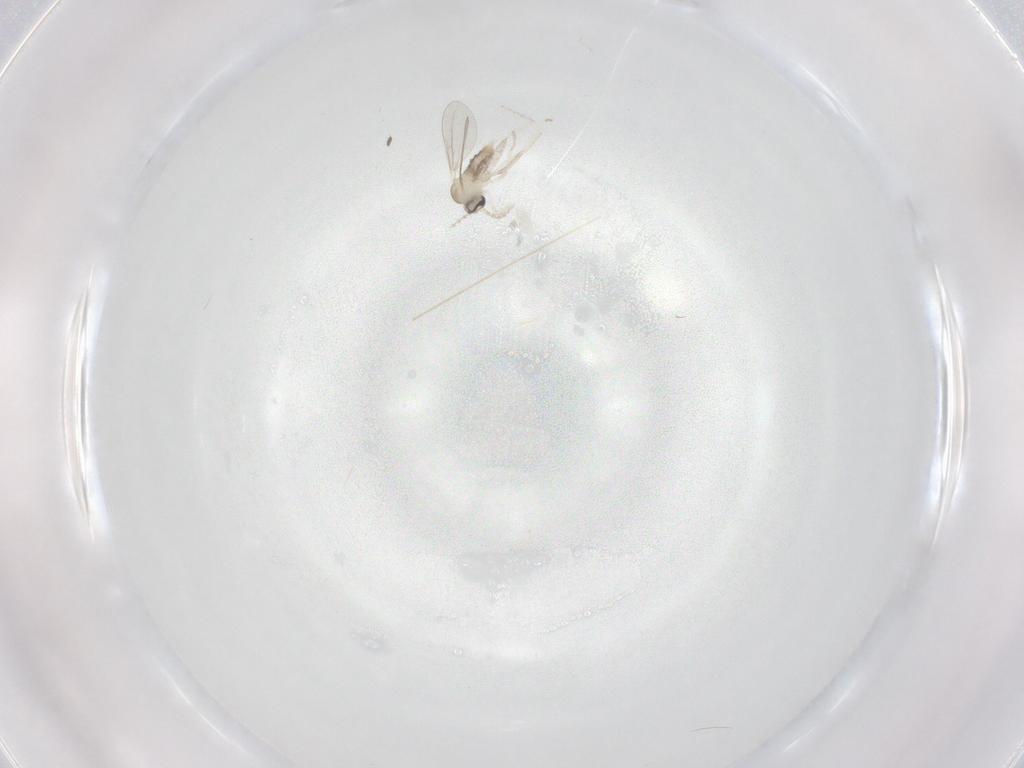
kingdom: Animalia
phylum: Arthropoda
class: Insecta
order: Diptera
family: Cecidomyiidae
